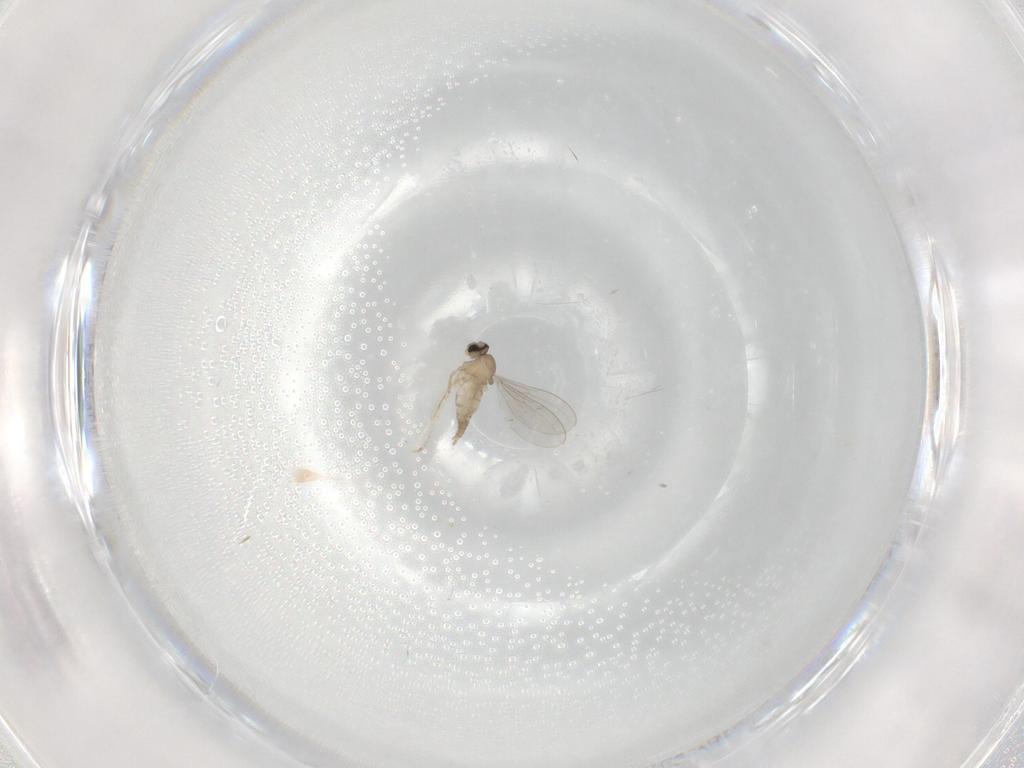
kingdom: Animalia
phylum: Arthropoda
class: Insecta
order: Diptera
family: Cecidomyiidae
